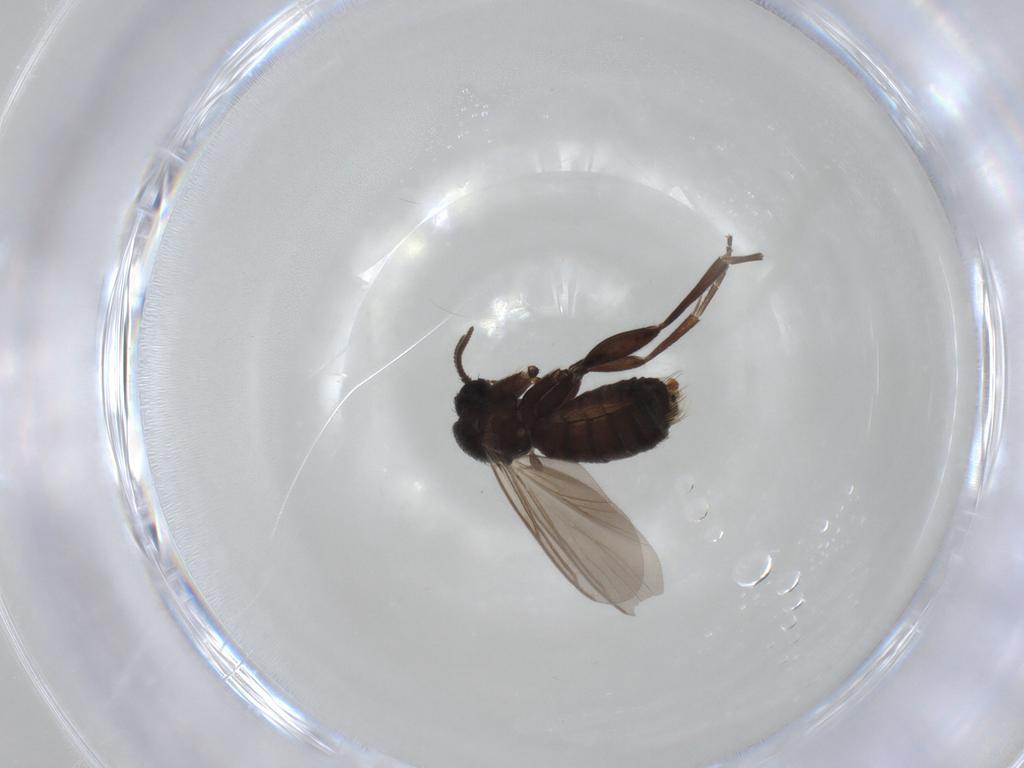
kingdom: Animalia
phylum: Arthropoda
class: Insecta
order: Diptera
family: Mycetophilidae
